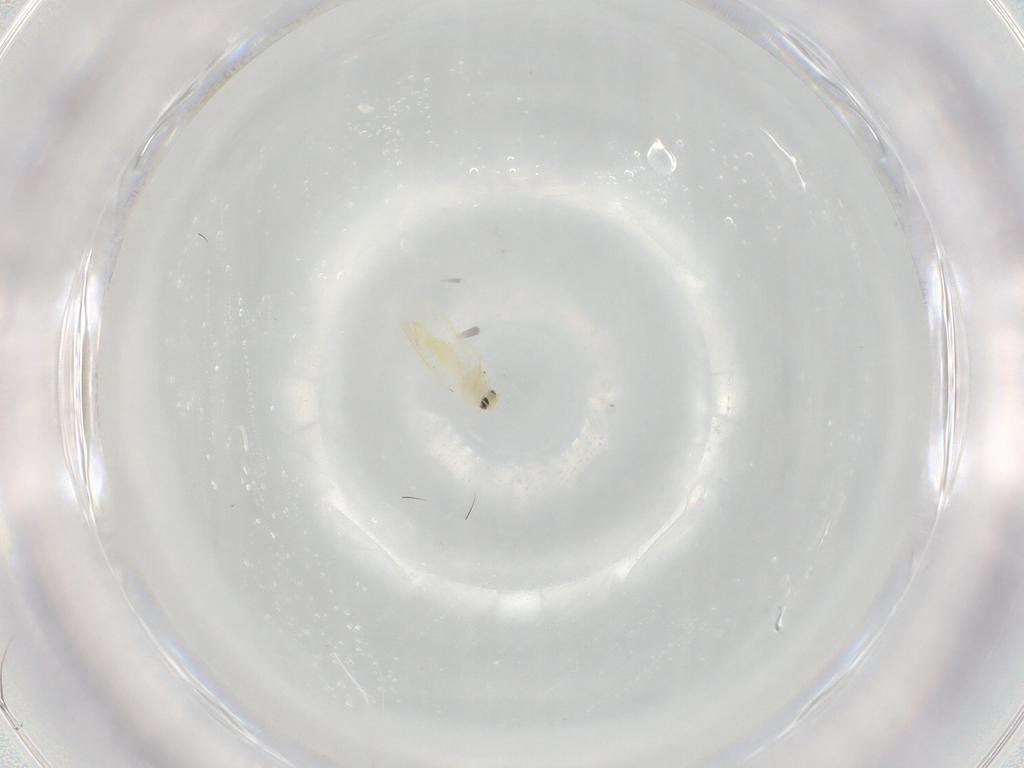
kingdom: Animalia
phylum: Arthropoda
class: Insecta
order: Hemiptera
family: Aleyrodidae
